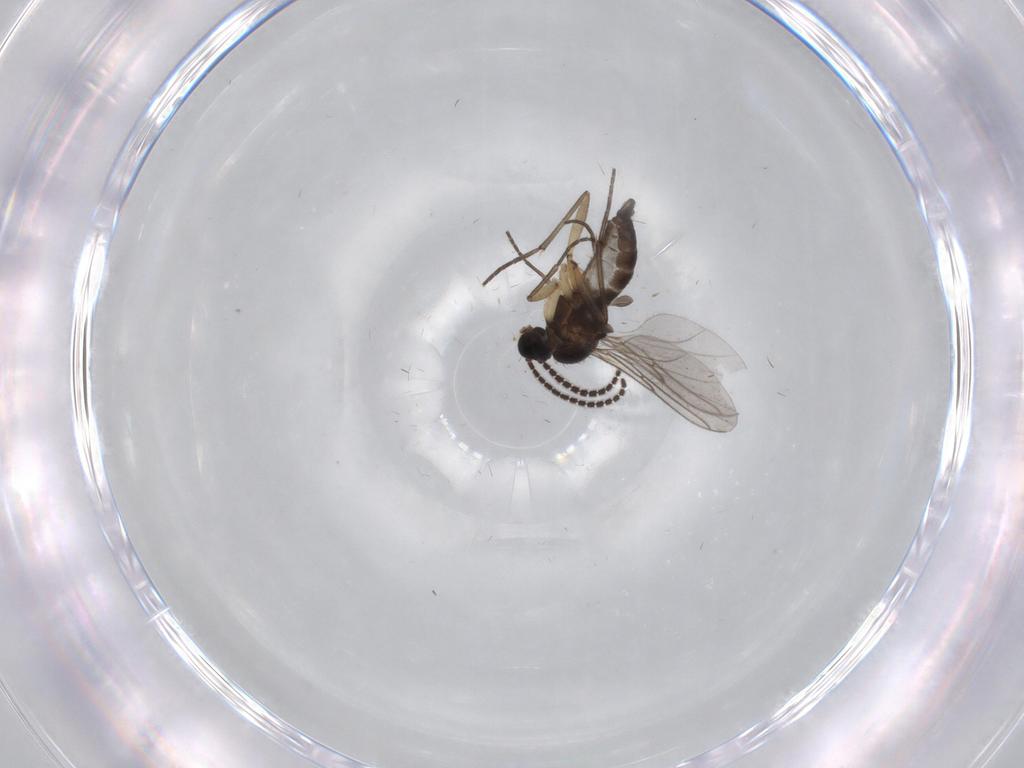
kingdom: Animalia
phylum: Arthropoda
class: Insecta
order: Diptera
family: Sciaridae
